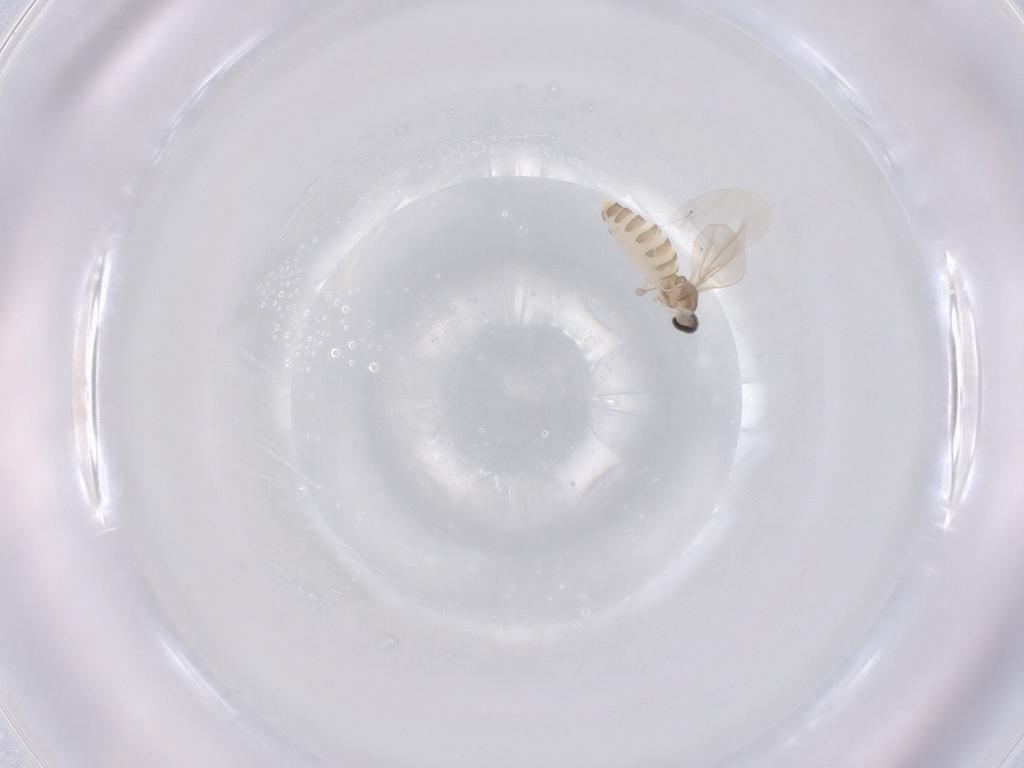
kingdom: Animalia
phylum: Arthropoda
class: Insecta
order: Diptera
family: Cecidomyiidae
